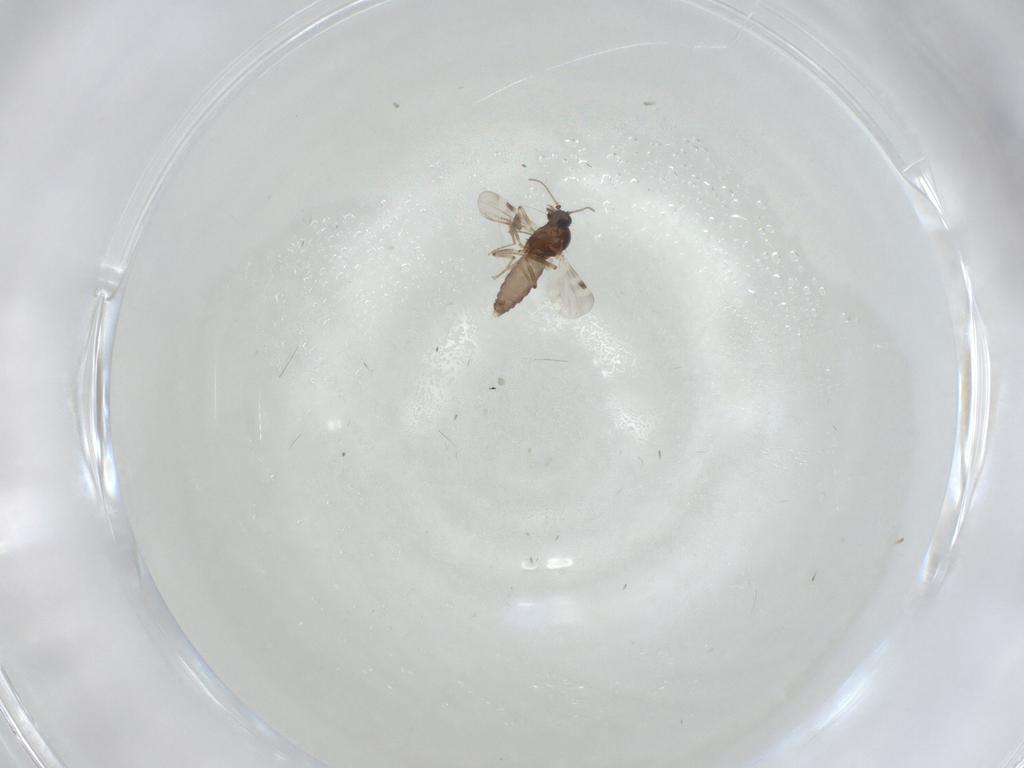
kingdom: Animalia
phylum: Arthropoda
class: Insecta
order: Diptera
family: Cecidomyiidae
